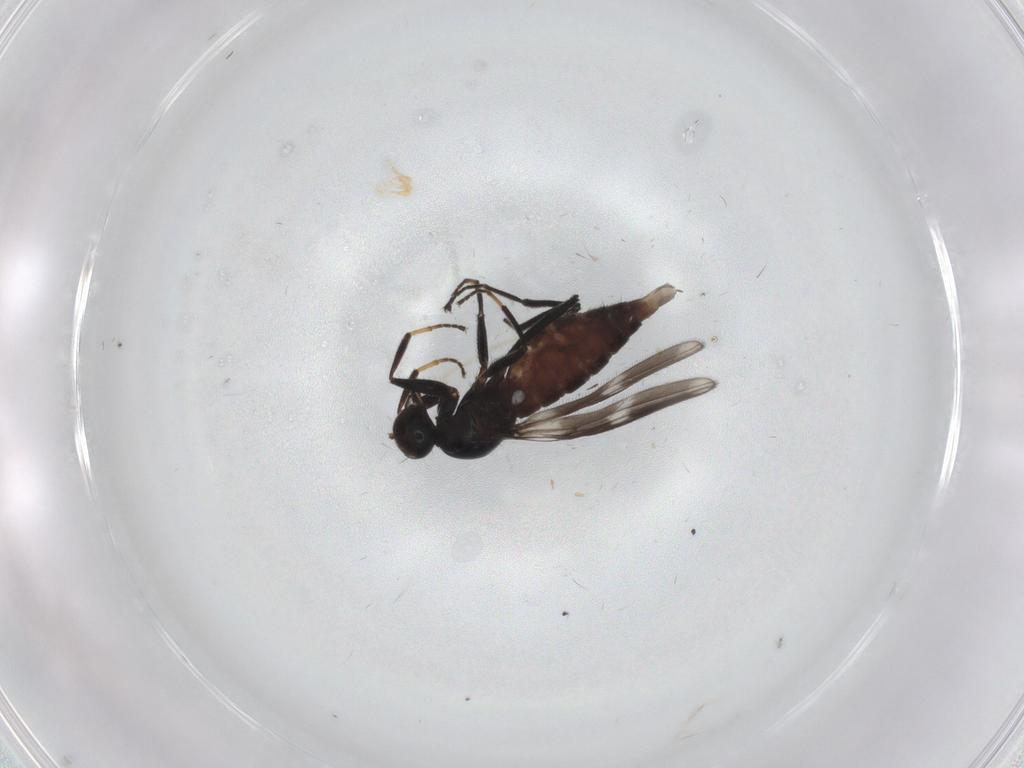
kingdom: Animalia
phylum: Arthropoda
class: Insecta
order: Diptera
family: Hybotidae
